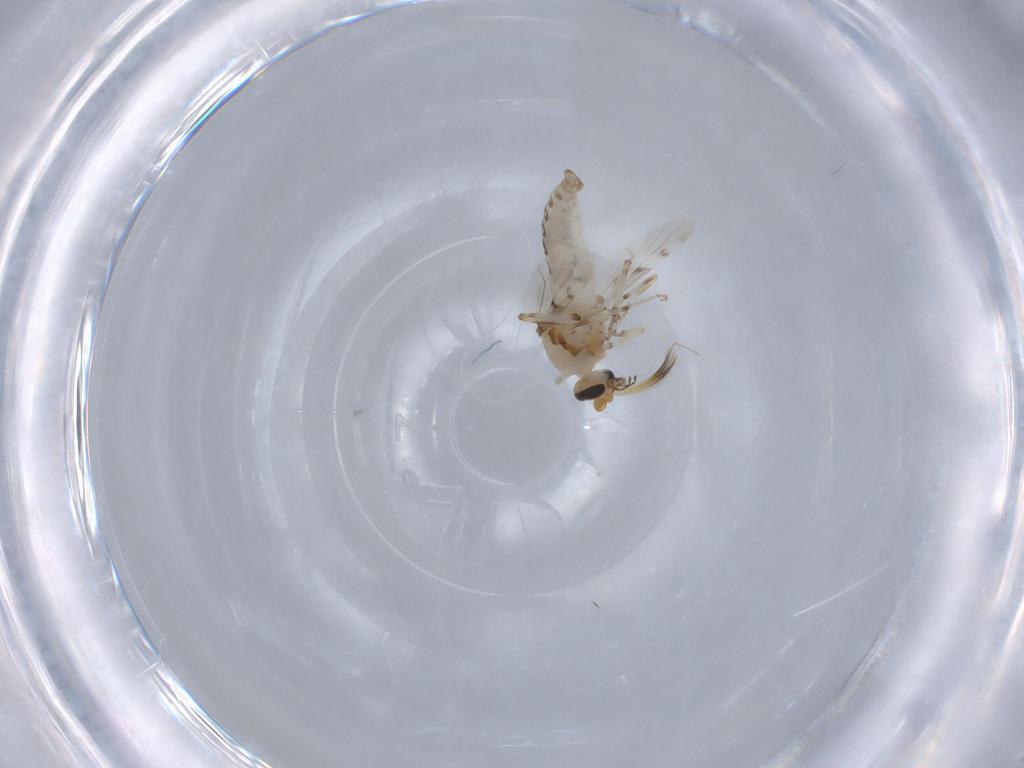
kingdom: Animalia
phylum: Arthropoda
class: Insecta
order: Diptera
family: Ceratopogonidae
